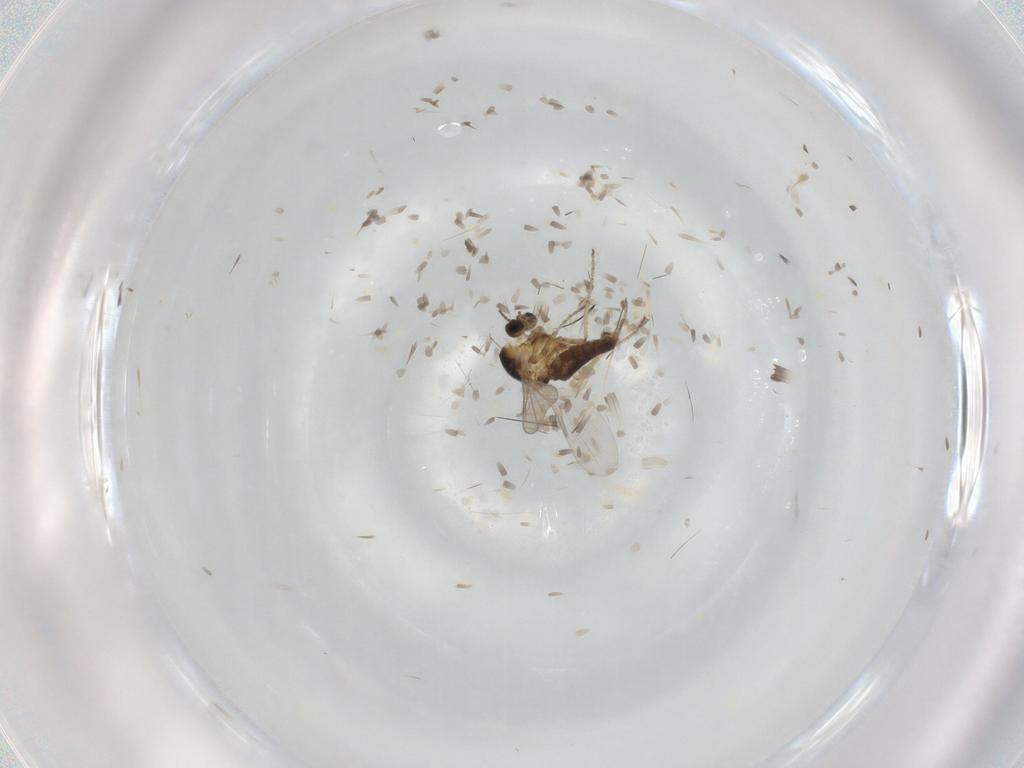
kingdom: Animalia
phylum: Arthropoda
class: Insecta
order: Diptera
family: Ceratopogonidae
